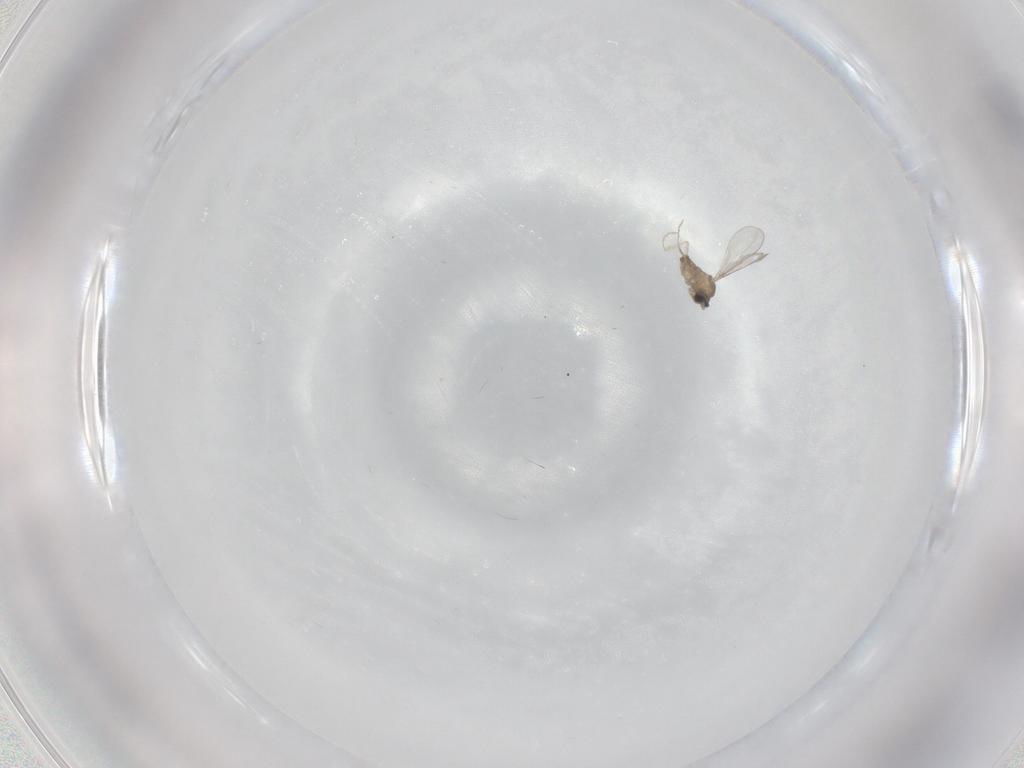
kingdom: Animalia
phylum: Arthropoda
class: Insecta
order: Diptera
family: Cecidomyiidae
